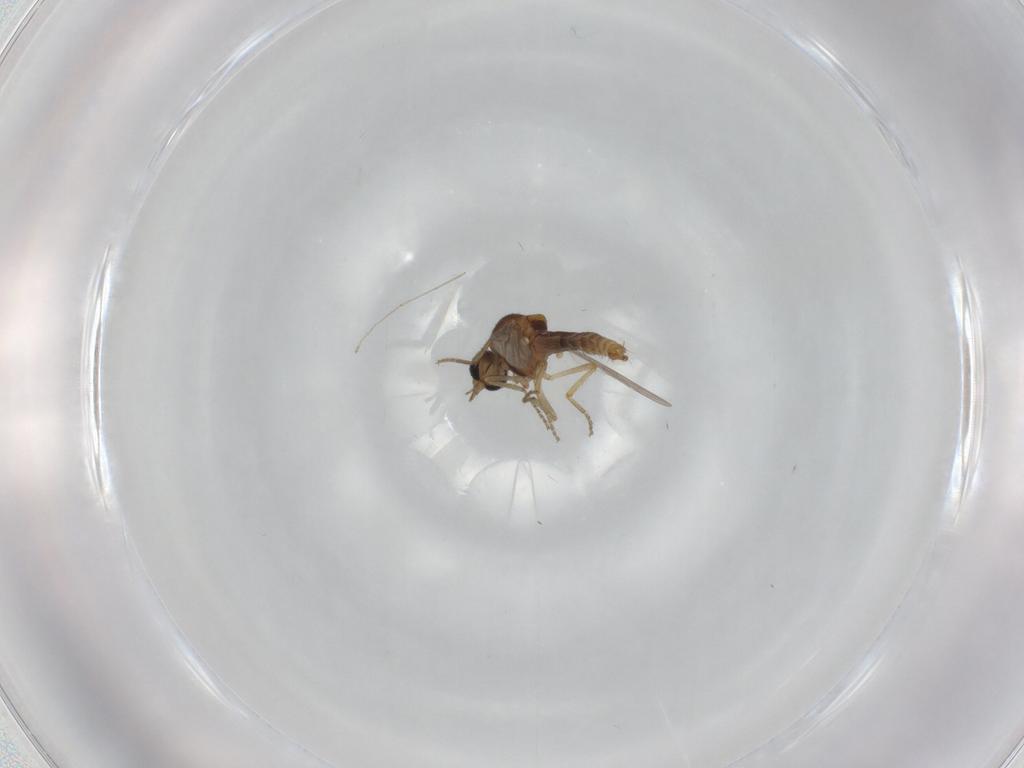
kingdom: Animalia
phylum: Arthropoda
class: Insecta
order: Diptera
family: Ceratopogonidae
